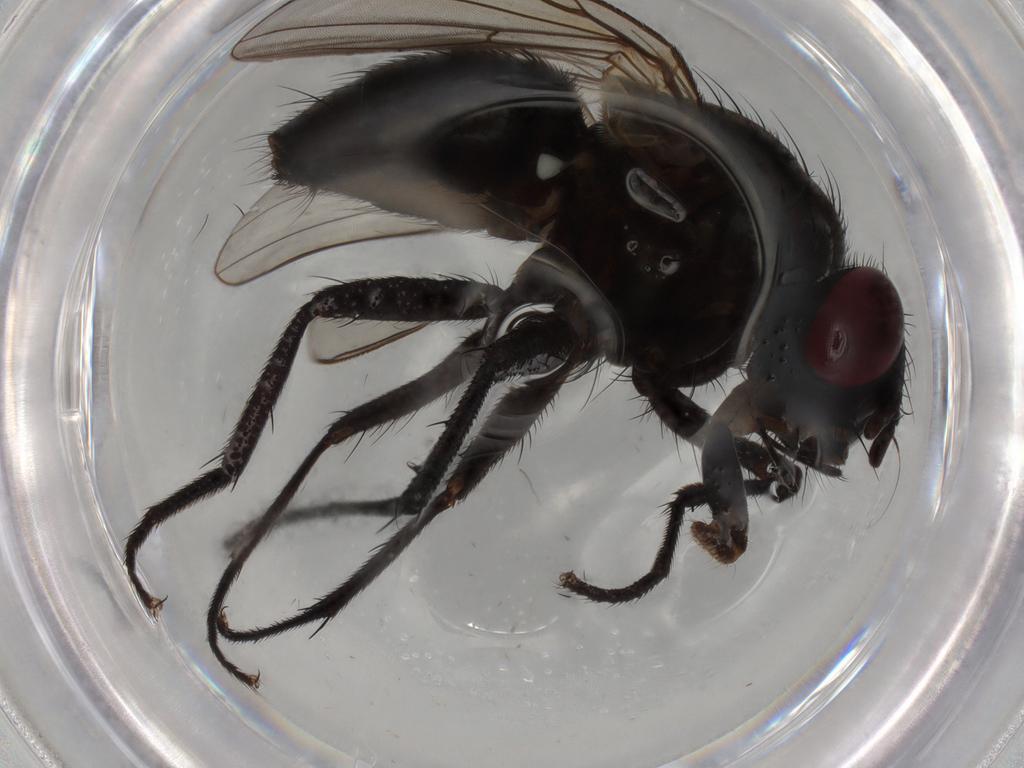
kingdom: Animalia
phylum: Arthropoda
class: Insecta
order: Diptera
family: Muscidae
